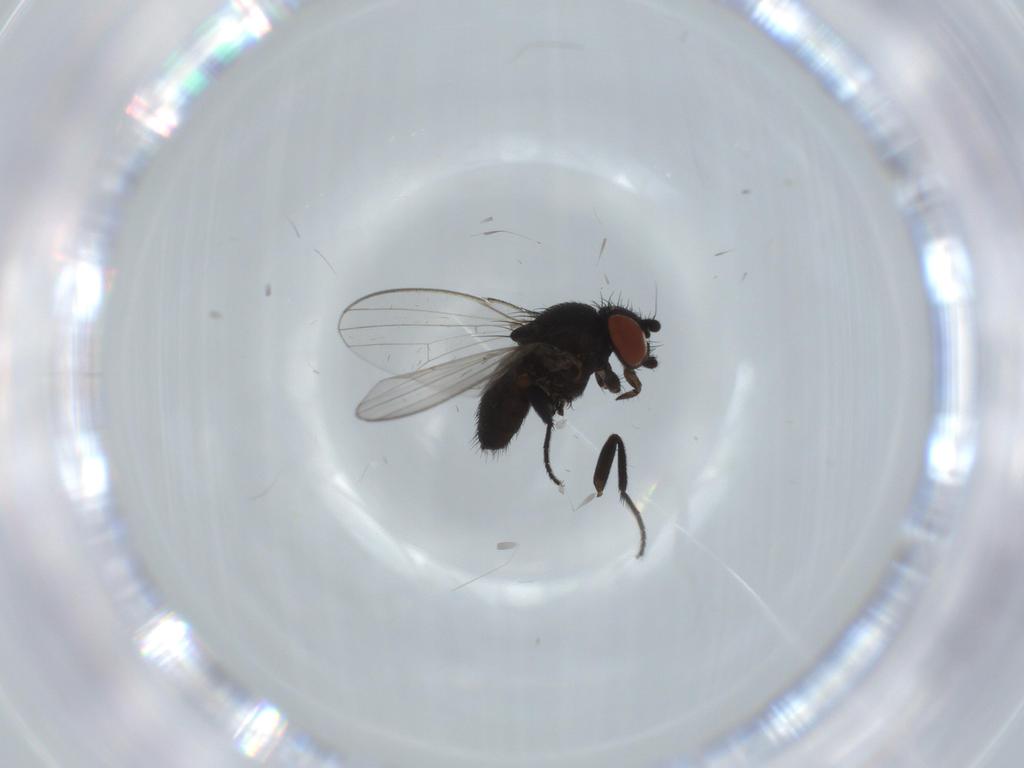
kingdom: Animalia
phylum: Arthropoda
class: Insecta
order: Diptera
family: Milichiidae
